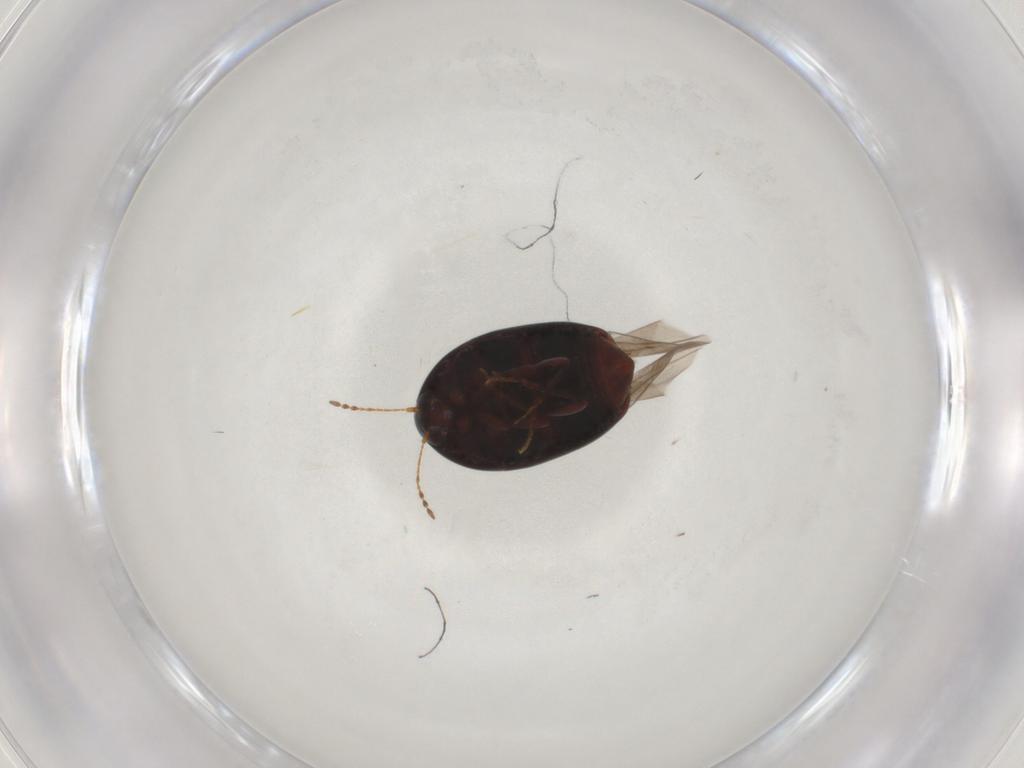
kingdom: Animalia
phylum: Arthropoda
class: Insecta
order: Coleoptera
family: Staphylinidae
